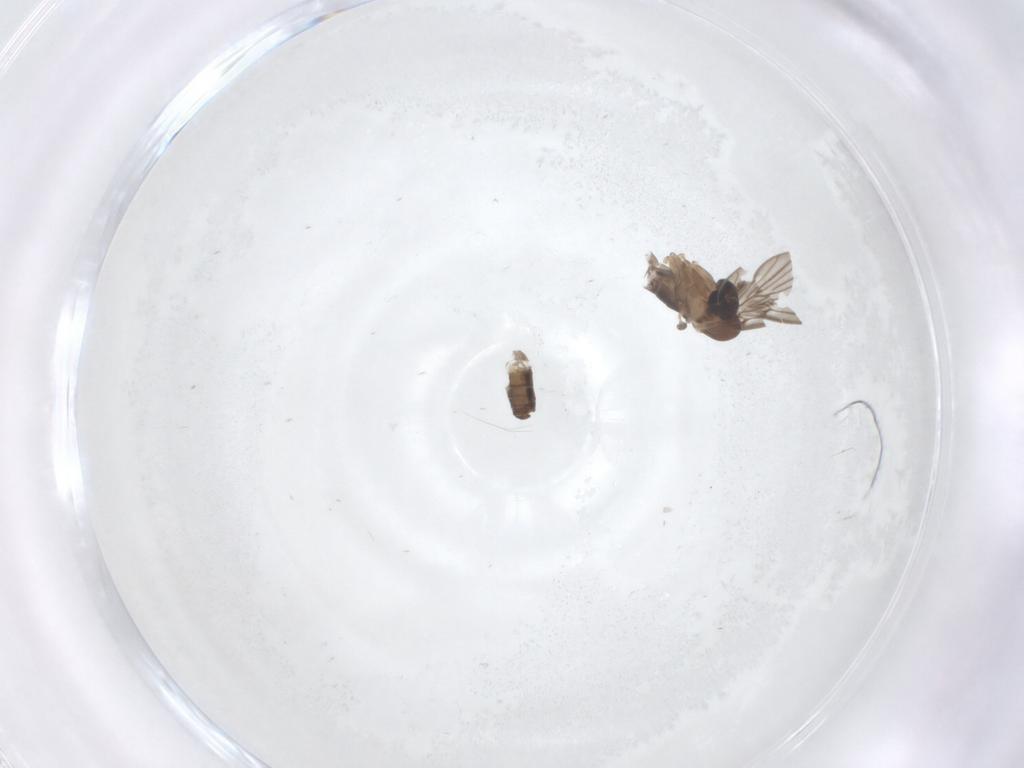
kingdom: Animalia
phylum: Arthropoda
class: Insecta
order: Diptera
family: Psychodidae
